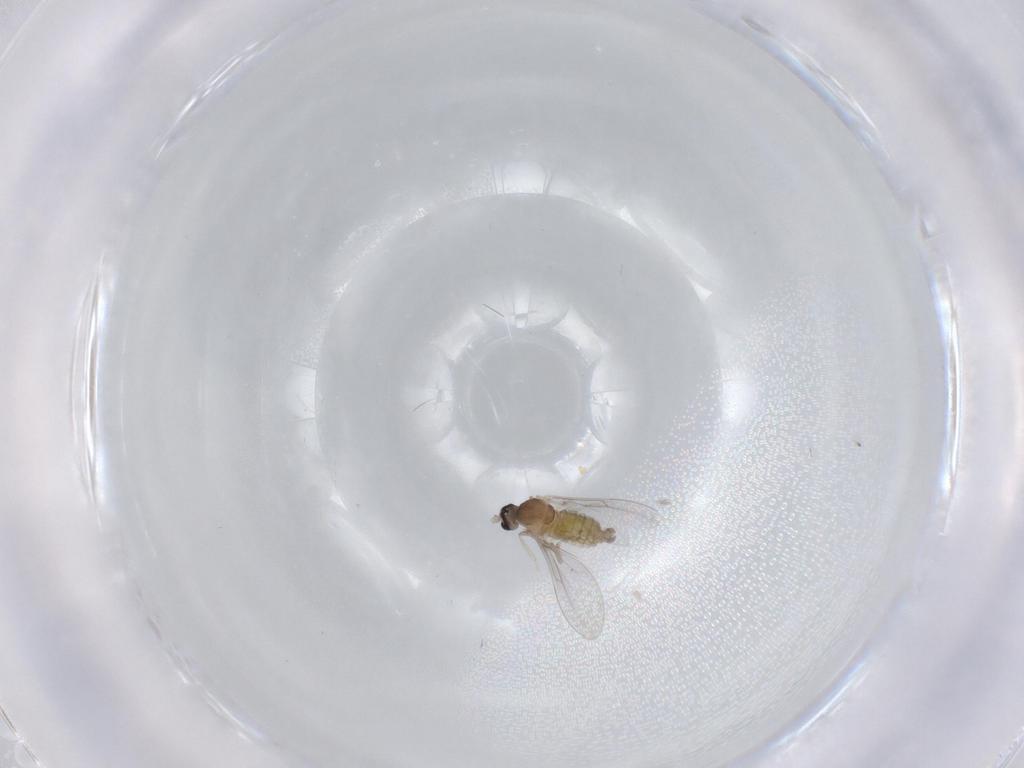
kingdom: Animalia
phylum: Arthropoda
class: Insecta
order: Diptera
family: Cecidomyiidae
